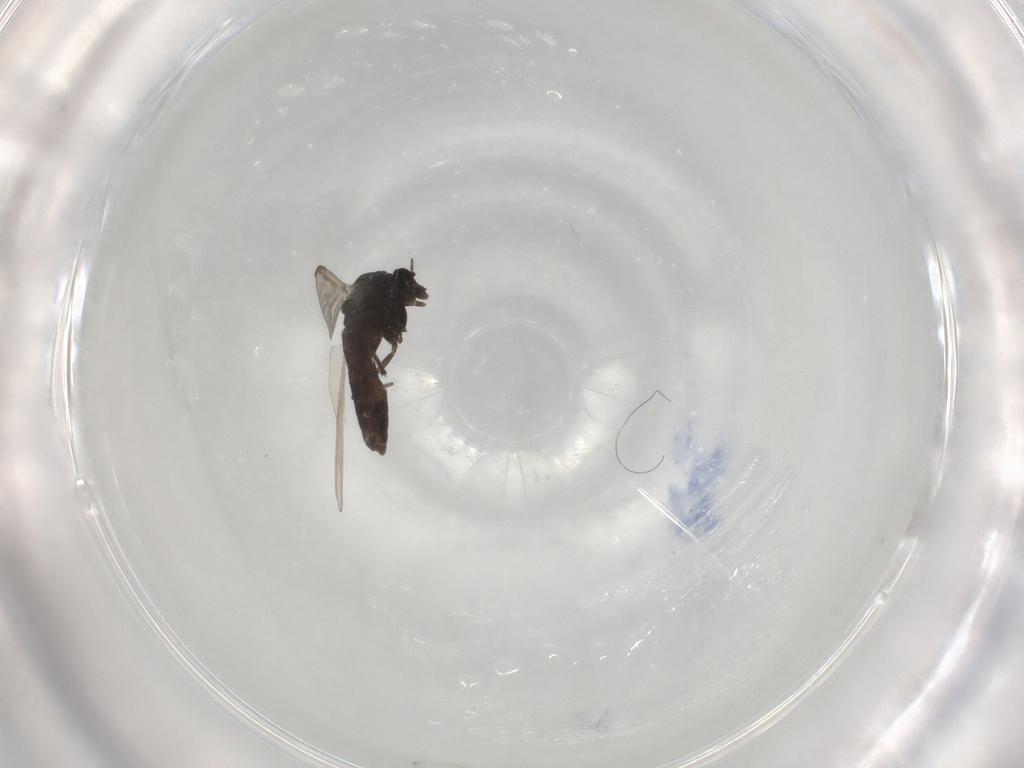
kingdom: Animalia
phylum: Arthropoda
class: Insecta
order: Diptera
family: Chironomidae
